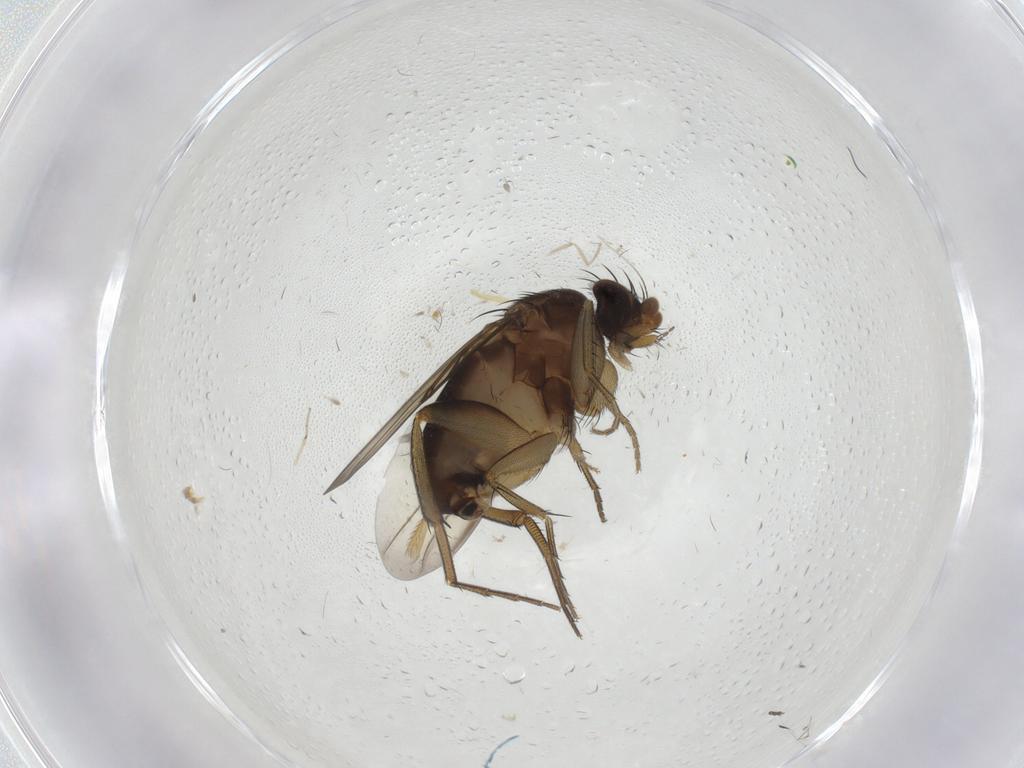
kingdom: Animalia
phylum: Arthropoda
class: Insecta
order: Diptera
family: Phoridae
